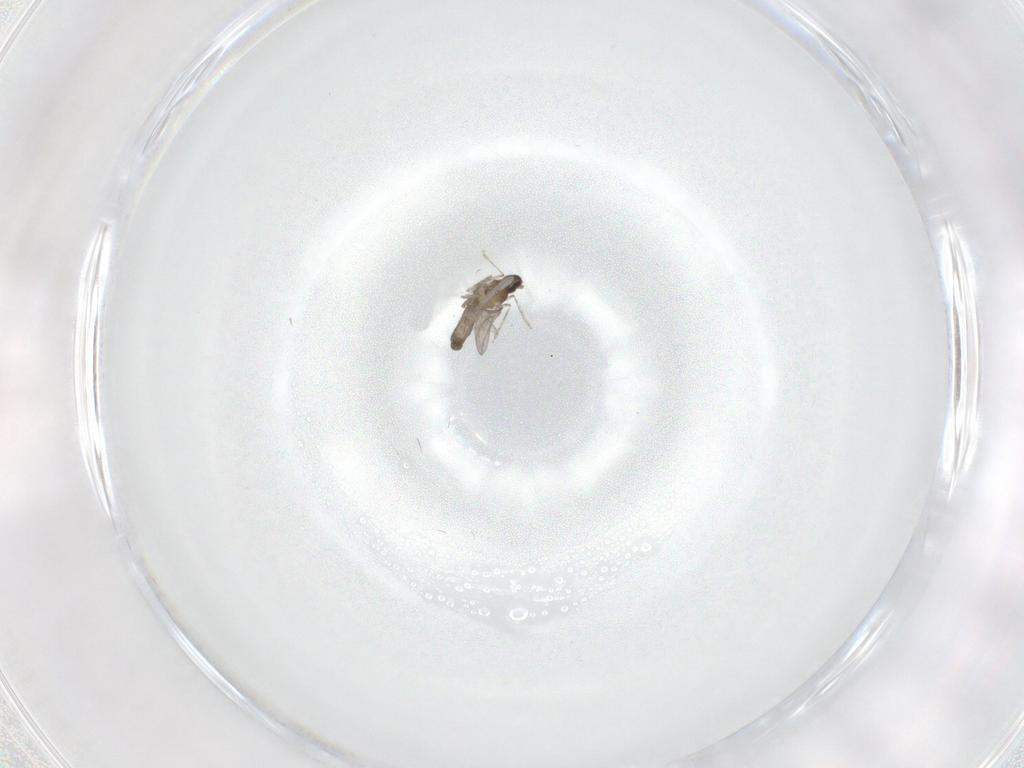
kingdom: Animalia
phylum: Arthropoda
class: Insecta
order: Diptera
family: Cecidomyiidae
